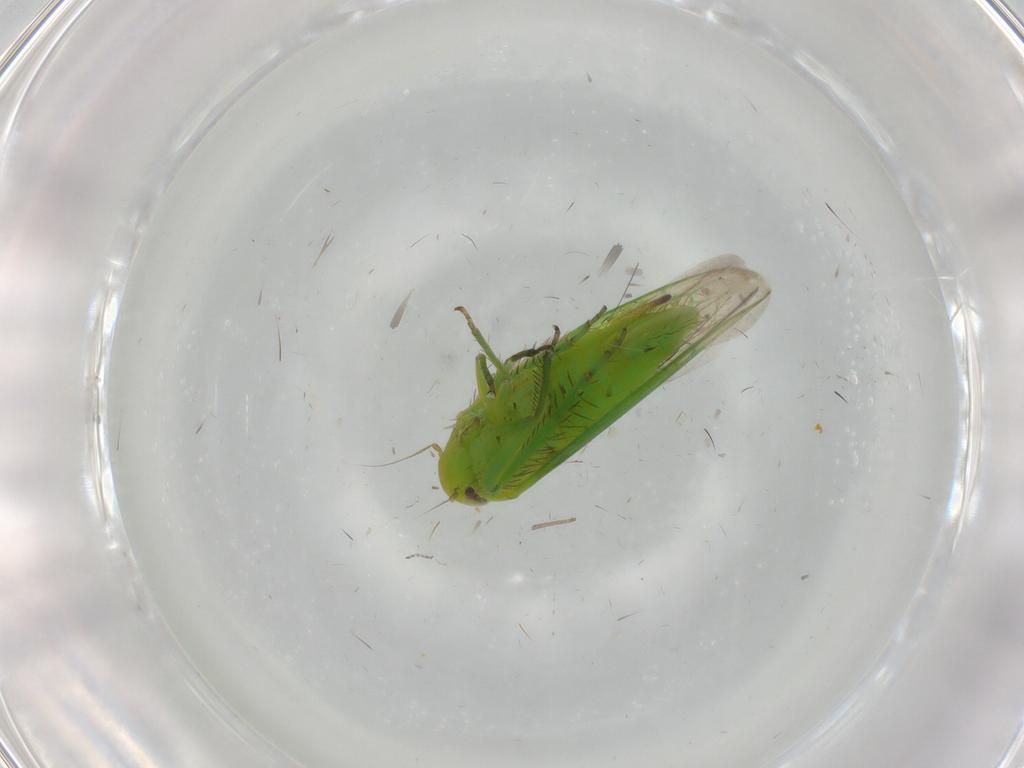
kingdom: Animalia
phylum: Arthropoda
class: Insecta
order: Hemiptera
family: Cicadellidae
